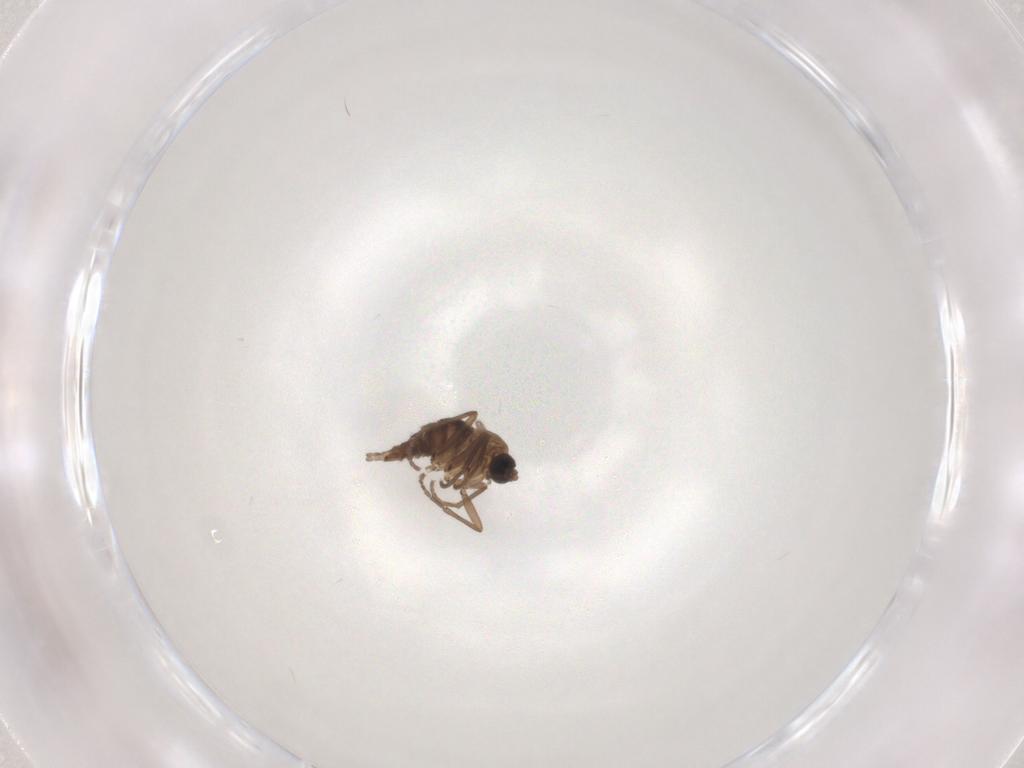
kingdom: Animalia
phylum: Arthropoda
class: Insecta
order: Diptera
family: Sciaridae
